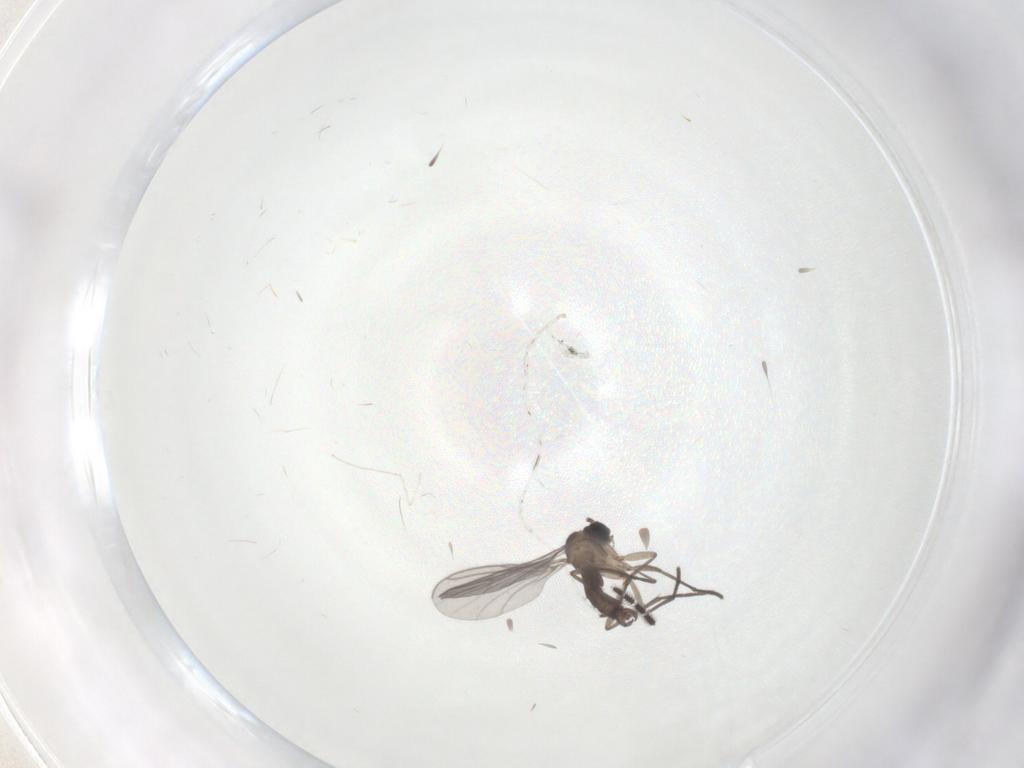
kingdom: Animalia
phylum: Arthropoda
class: Insecta
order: Diptera
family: Sciaridae
